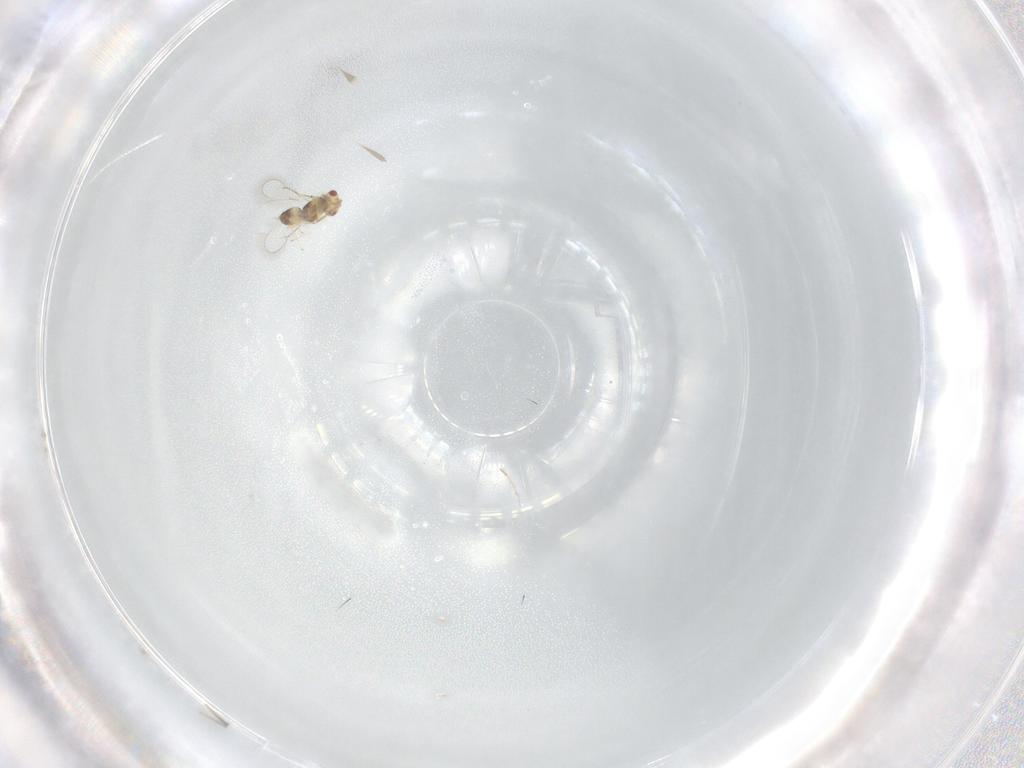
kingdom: Animalia
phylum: Arthropoda
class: Insecta
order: Hymenoptera
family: Eulophidae
